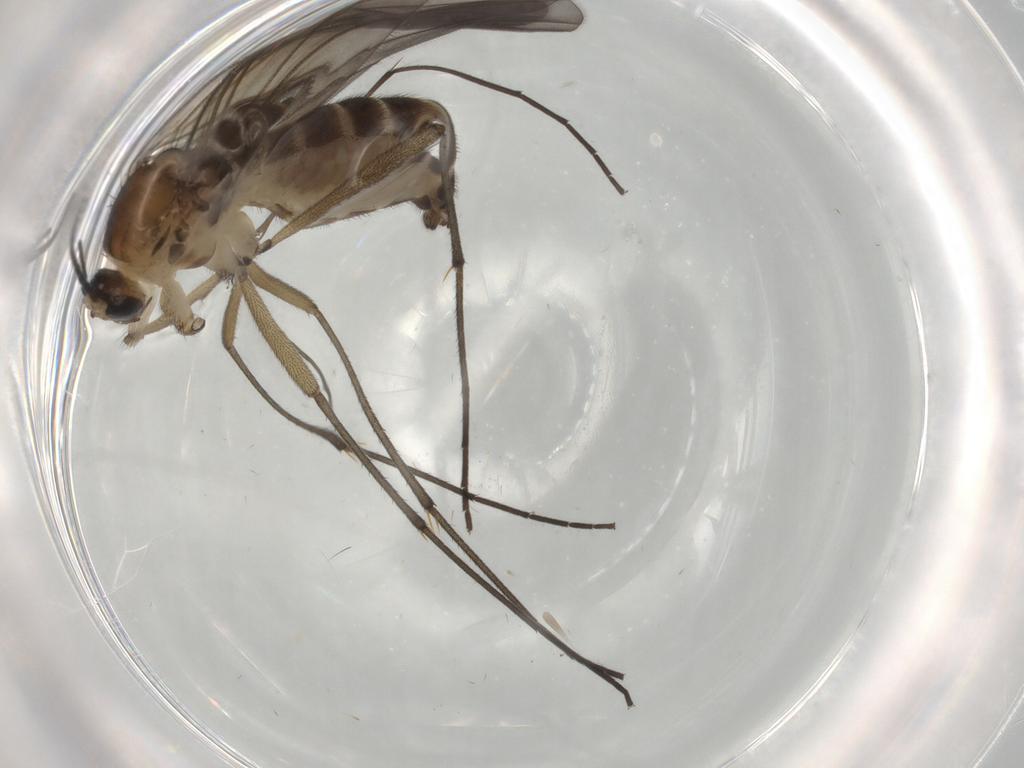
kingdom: Animalia
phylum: Arthropoda
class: Insecta
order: Diptera
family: Sciaridae
